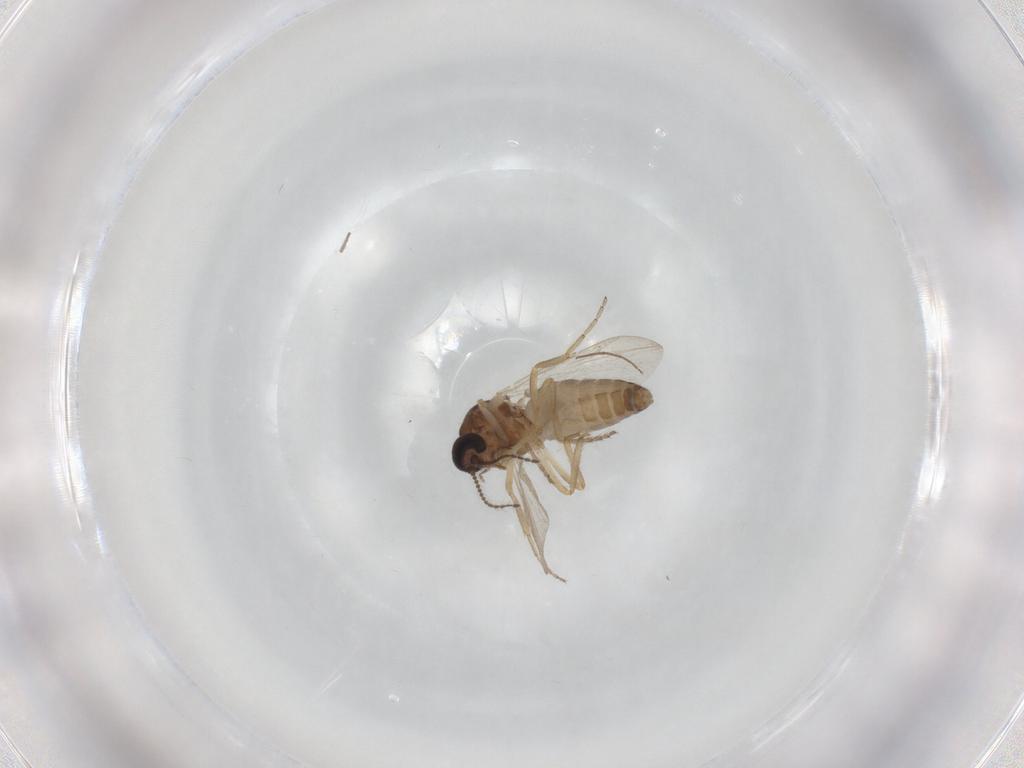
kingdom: Animalia
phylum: Arthropoda
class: Insecta
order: Diptera
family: Ceratopogonidae
